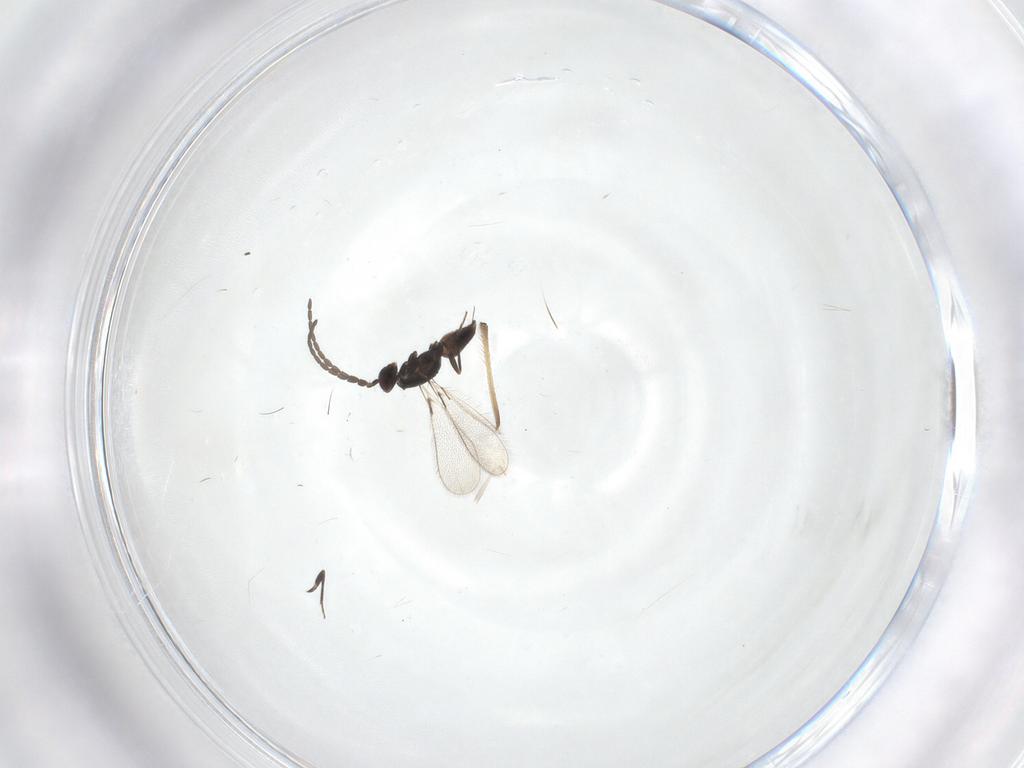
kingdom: Animalia
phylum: Arthropoda
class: Insecta
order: Hymenoptera
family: Mymaridae
